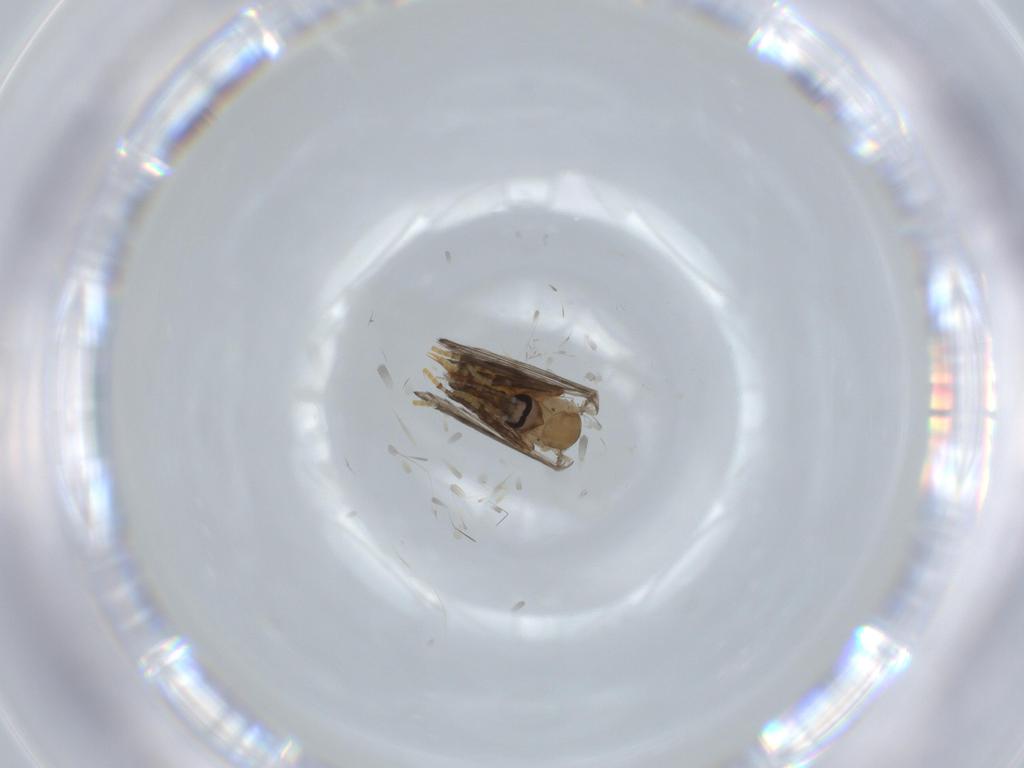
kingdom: Animalia
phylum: Arthropoda
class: Insecta
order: Diptera
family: Psychodidae
